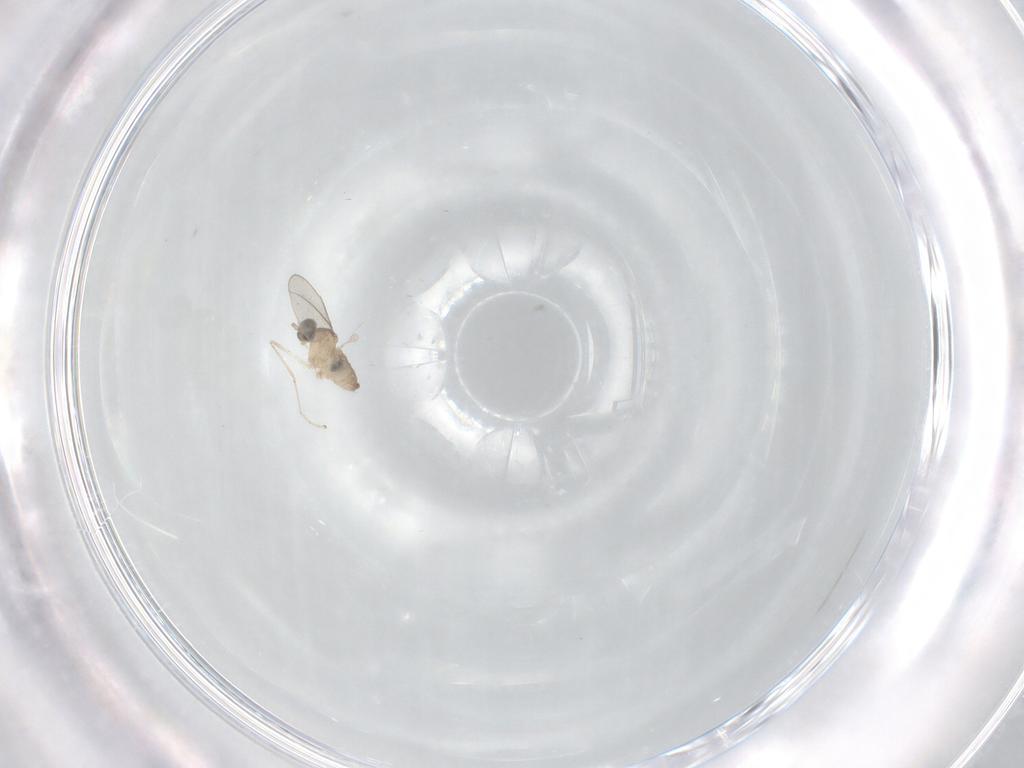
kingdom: Animalia
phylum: Arthropoda
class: Insecta
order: Diptera
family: Cecidomyiidae
